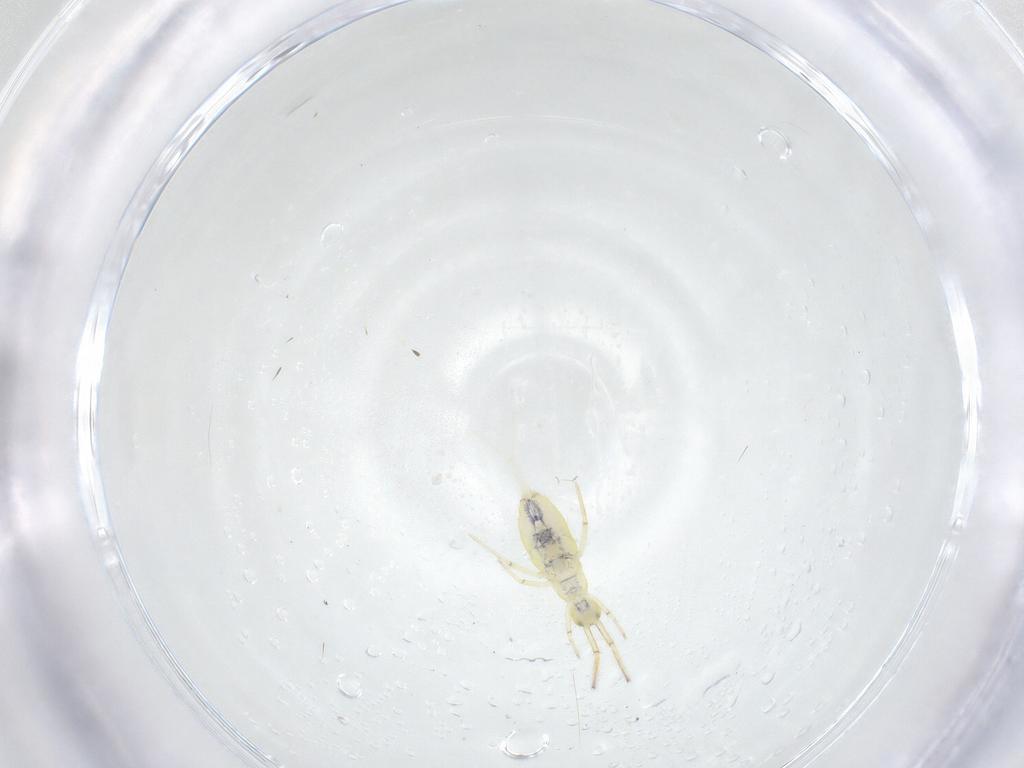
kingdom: Animalia
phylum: Arthropoda
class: Collembola
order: Entomobryomorpha
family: Paronellidae
